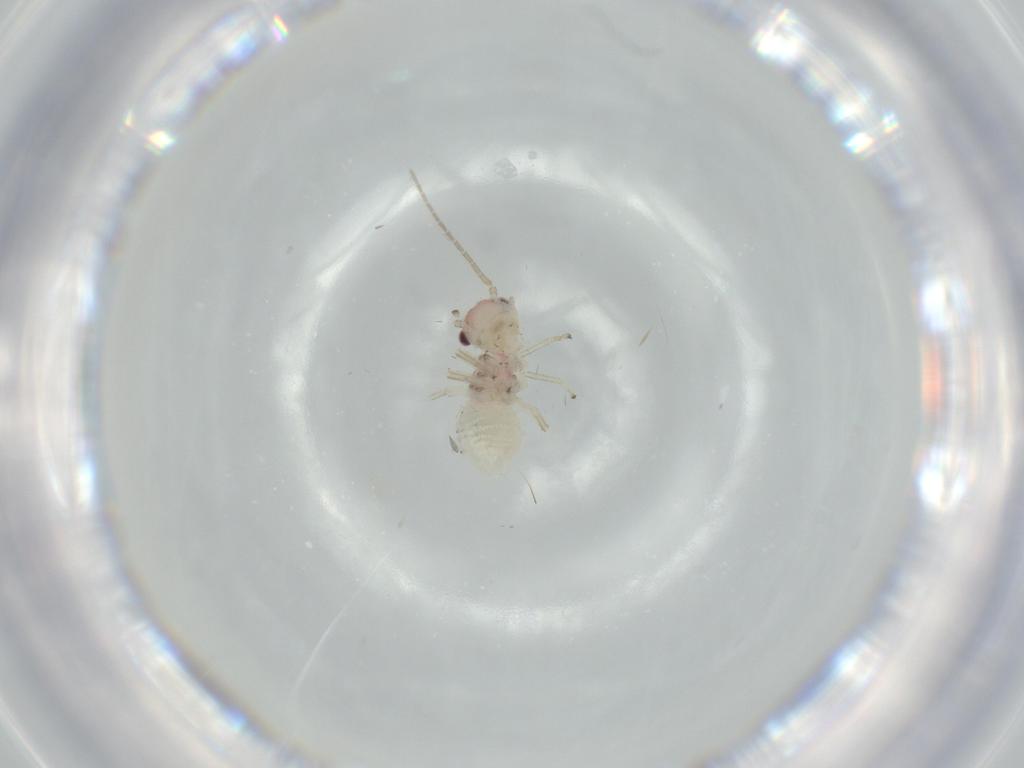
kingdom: Animalia
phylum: Arthropoda
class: Insecta
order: Psocodea
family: Epipsocidae
